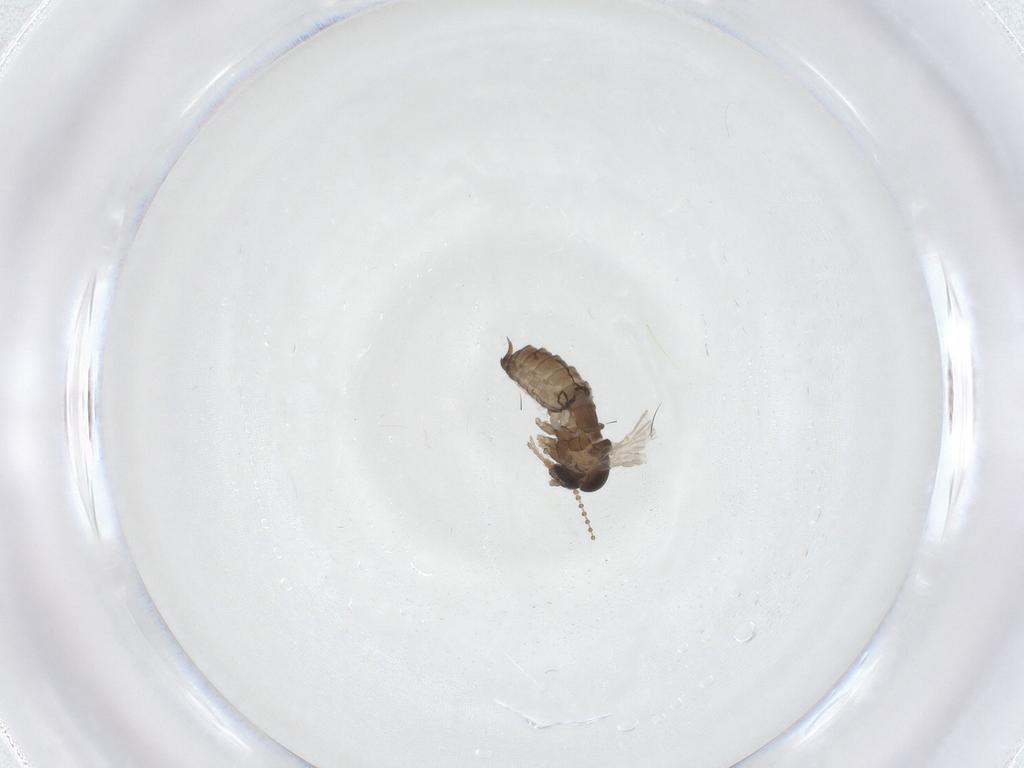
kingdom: Animalia
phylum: Arthropoda
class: Insecta
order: Diptera
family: Psychodidae
